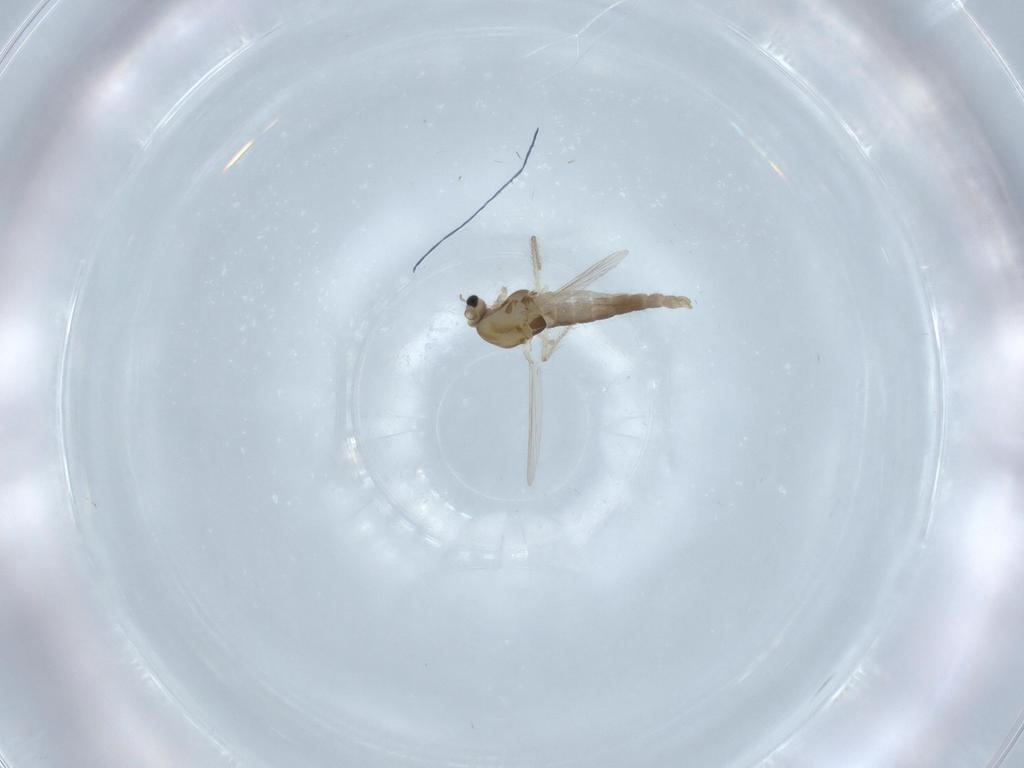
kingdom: Animalia
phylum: Arthropoda
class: Insecta
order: Diptera
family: Chironomidae
